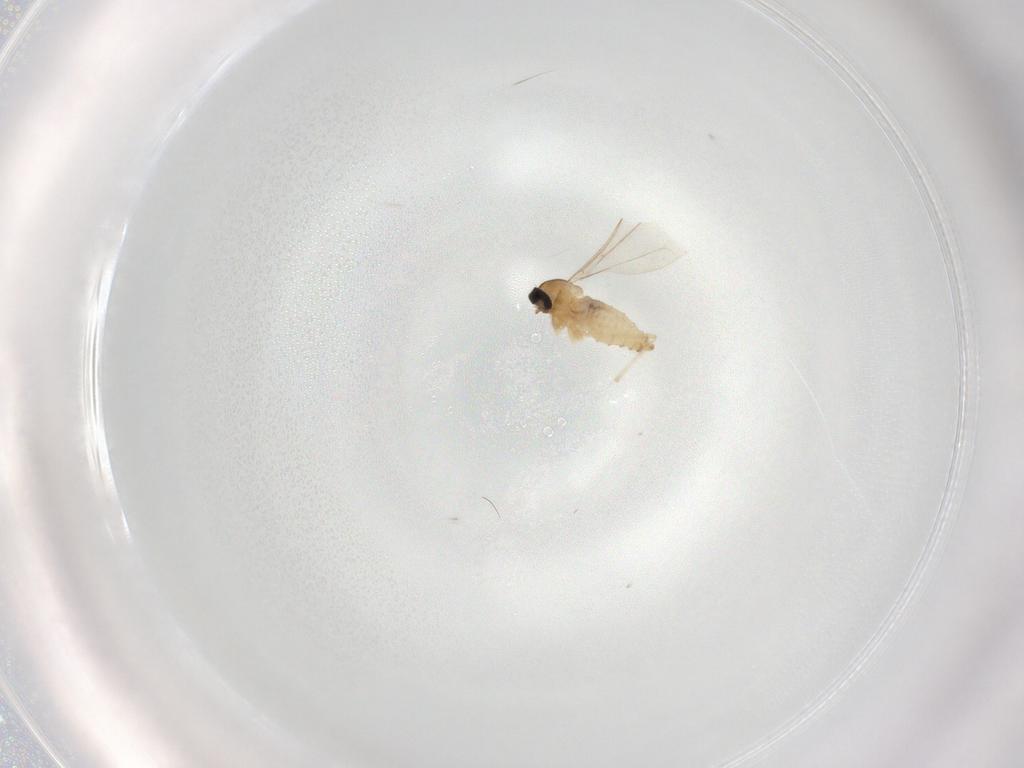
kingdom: Animalia
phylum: Arthropoda
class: Insecta
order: Diptera
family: Cecidomyiidae
